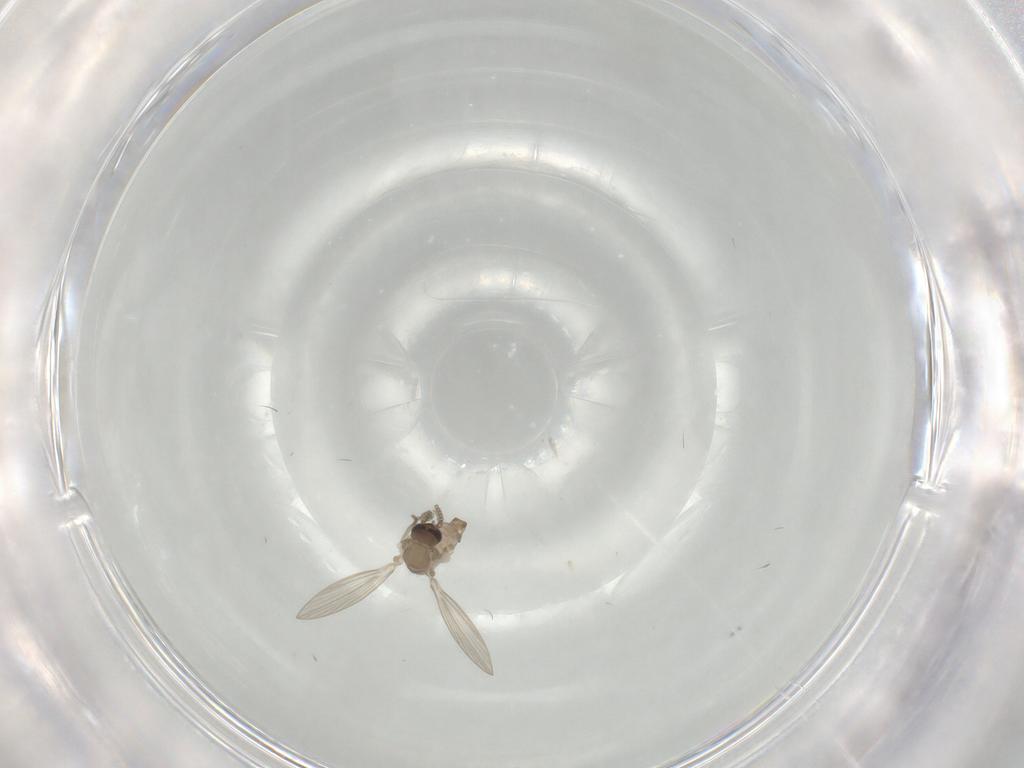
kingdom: Animalia
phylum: Arthropoda
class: Insecta
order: Diptera
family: Psychodidae
